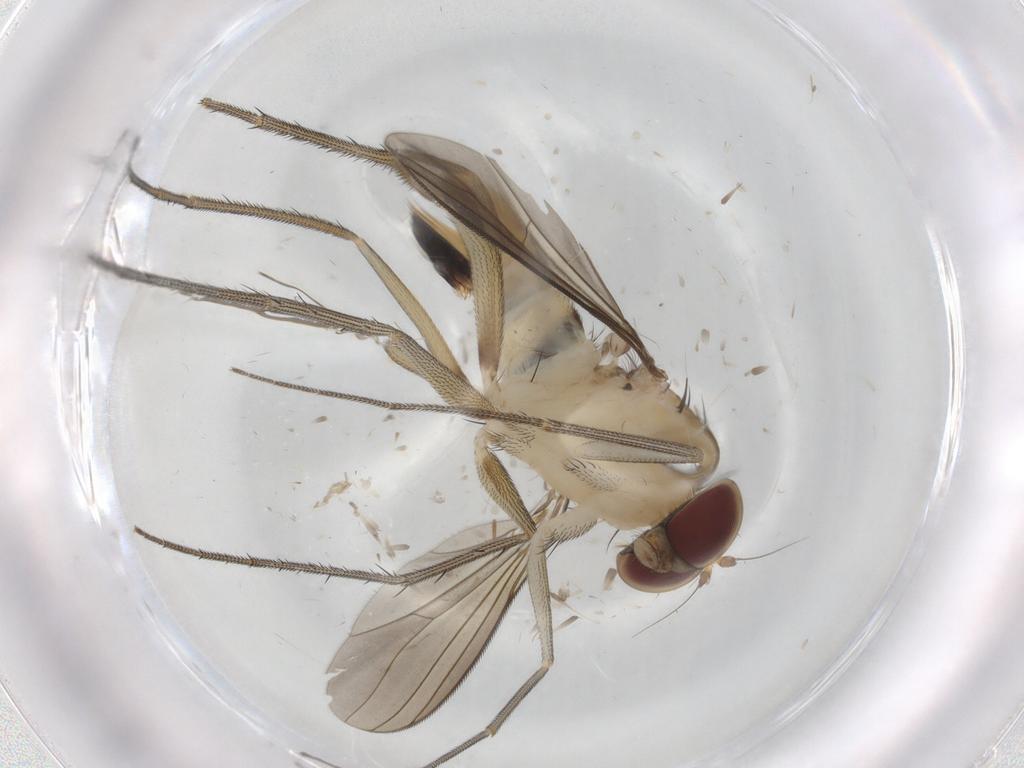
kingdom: Animalia
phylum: Arthropoda
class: Insecta
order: Diptera
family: Dolichopodidae
